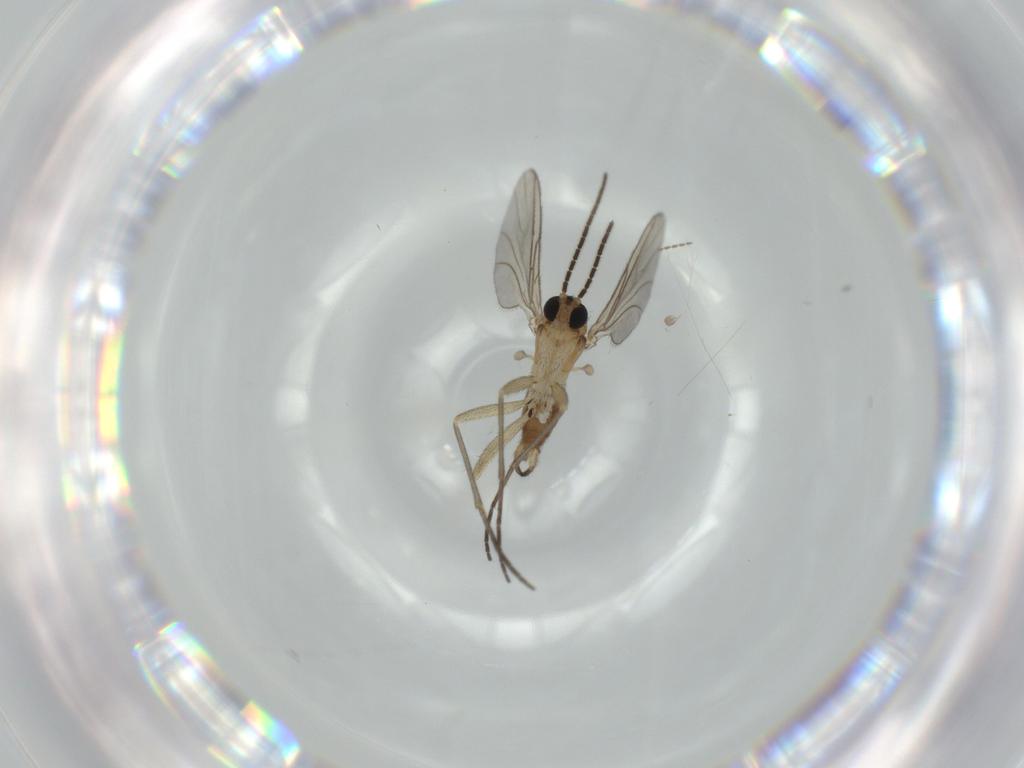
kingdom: Animalia
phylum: Arthropoda
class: Insecta
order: Diptera
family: Sciaridae
